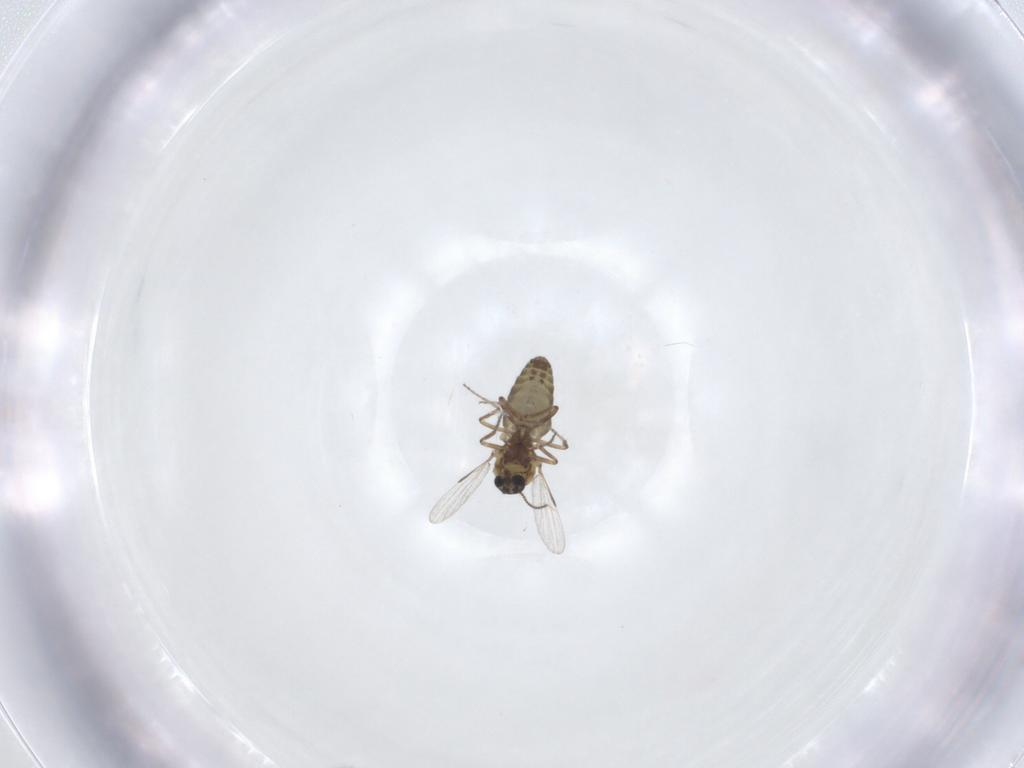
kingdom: Animalia
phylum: Arthropoda
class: Insecta
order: Diptera
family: Ceratopogonidae
